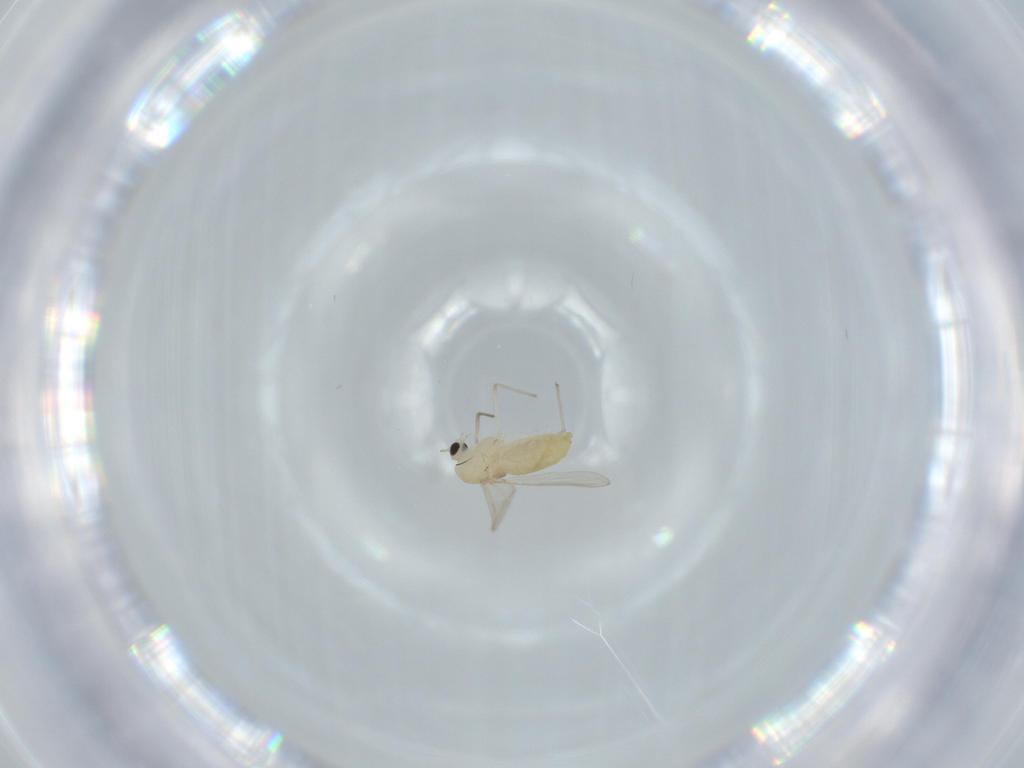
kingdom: Animalia
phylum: Arthropoda
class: Insecta
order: Diptera
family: Chironomidae
